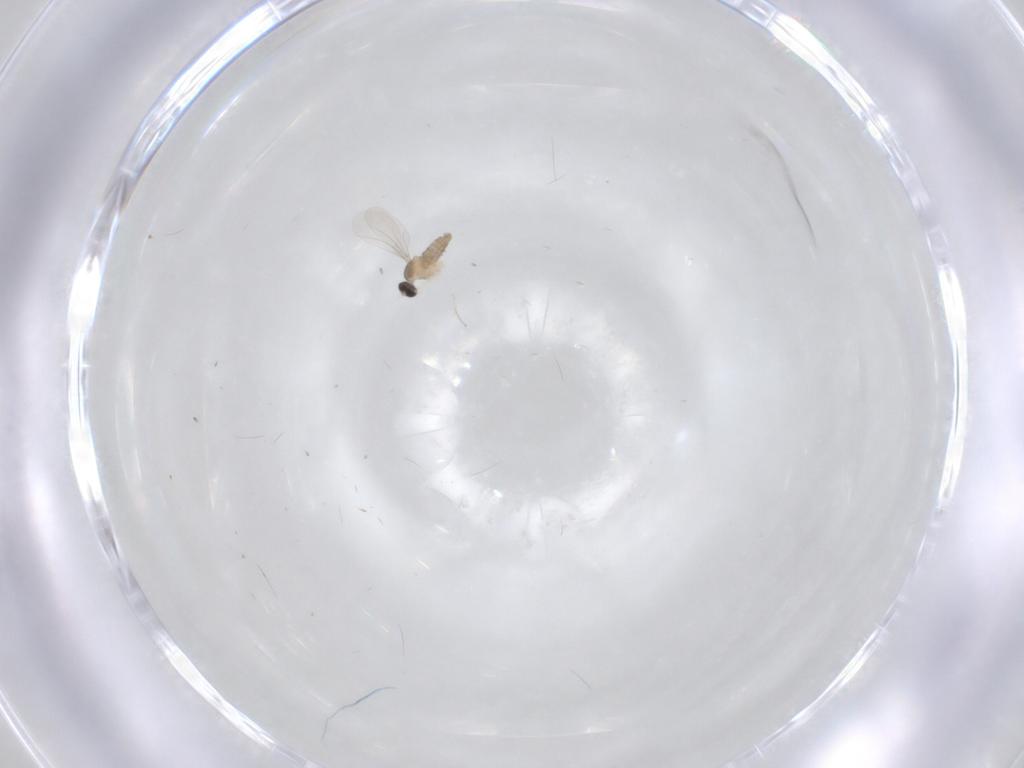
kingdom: Animalia
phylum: Arthropoda
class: Insecta
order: Diptera
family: Cecidomyiidae
